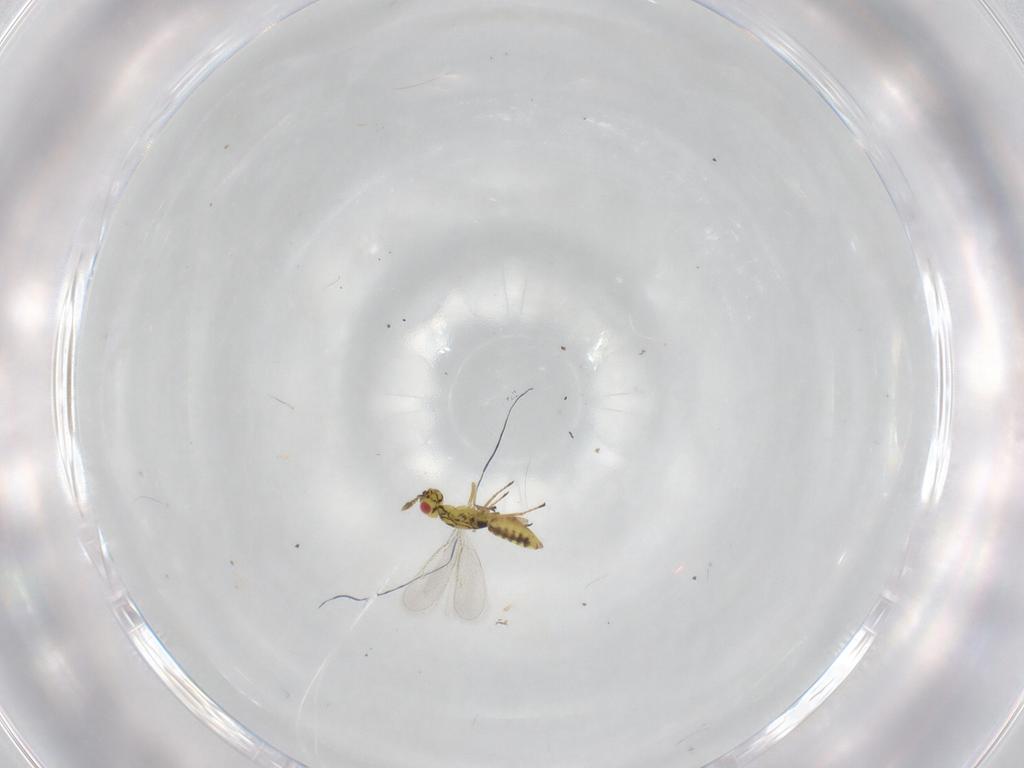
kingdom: Animalia
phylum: Arthropoda
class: Insecta
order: Hymenoptera
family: Eulophidae
